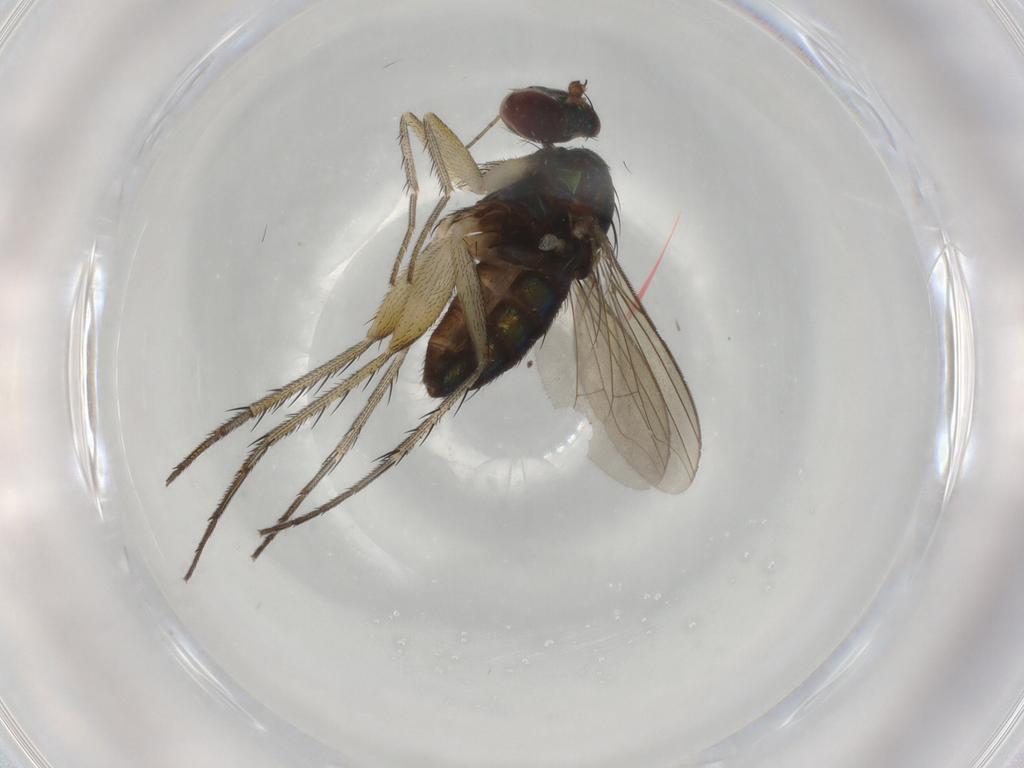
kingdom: Animalia
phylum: Arthropoda
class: Insecta
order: Diptera
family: Dolichopodidae
